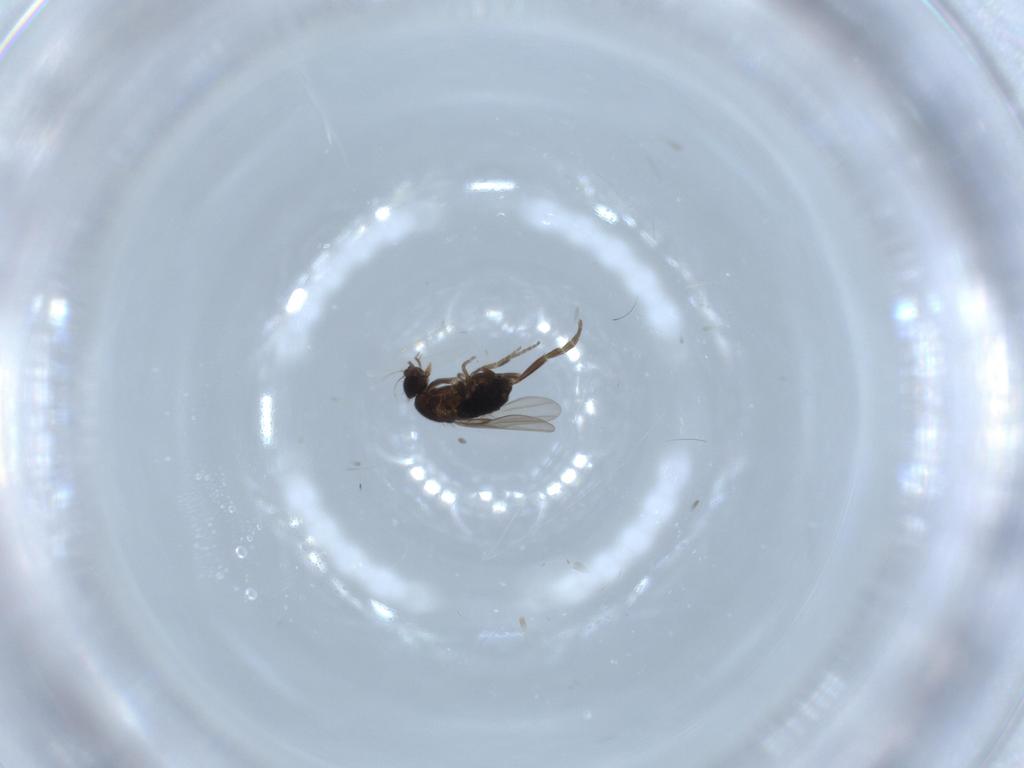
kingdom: Animalia
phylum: Arthropoda
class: Insecta
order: Diptera
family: Phoridae
